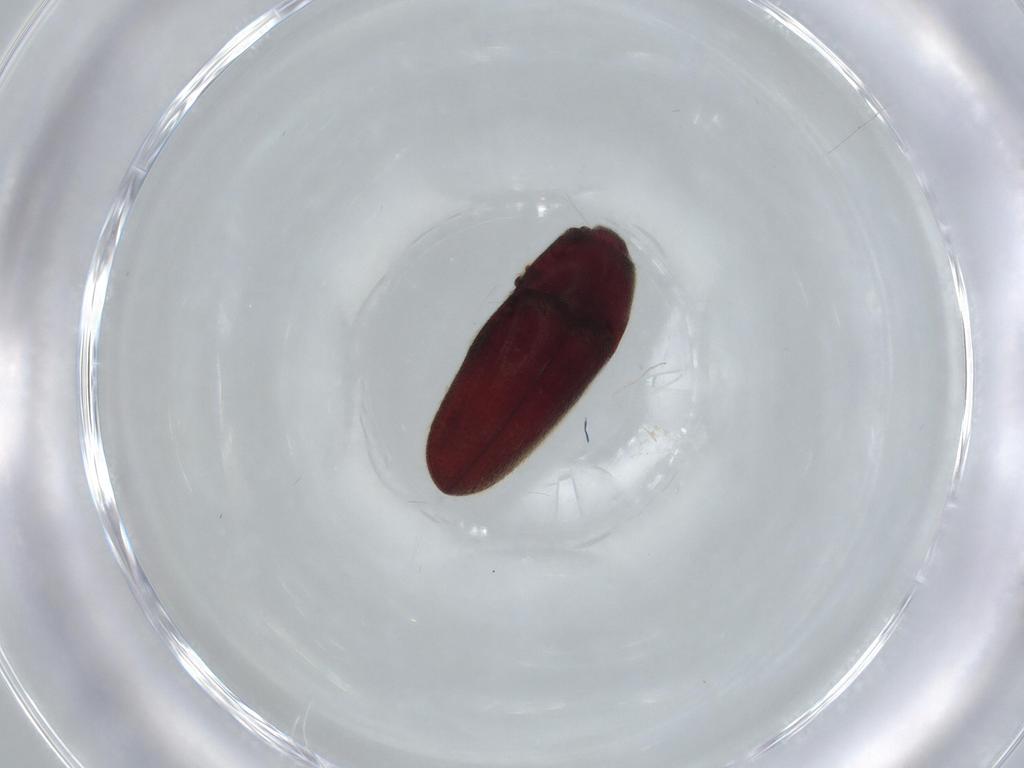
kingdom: Animalia
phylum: Arthropoda
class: Insecta
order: Coleoptera
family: Throscidae
